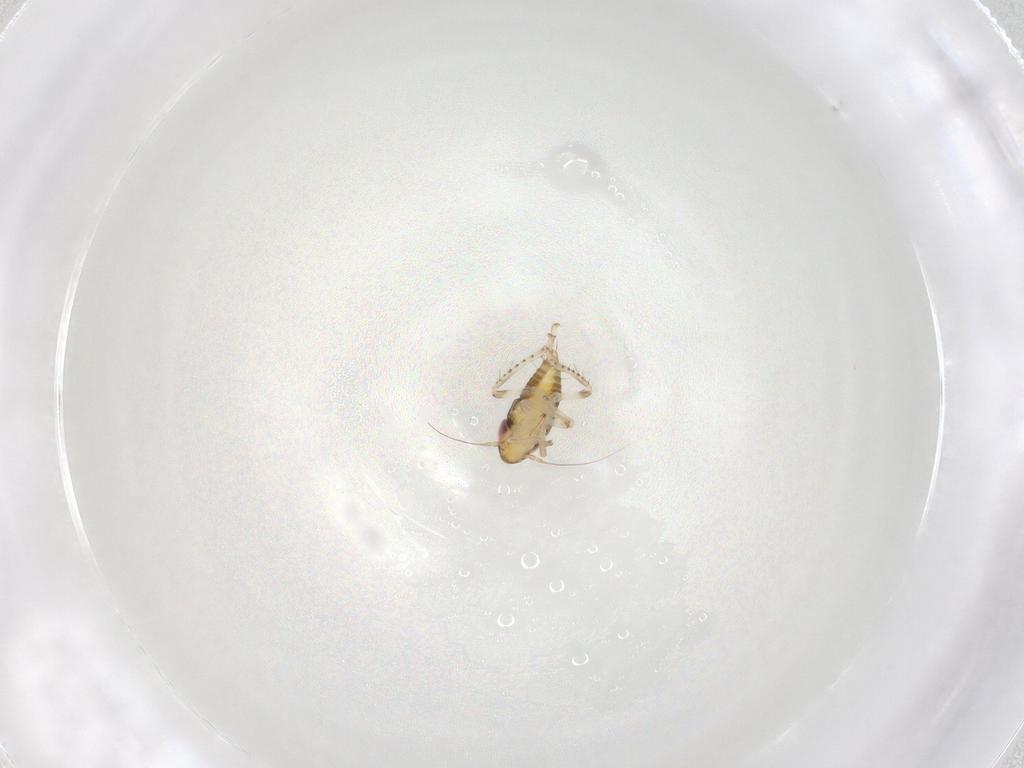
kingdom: Animalia
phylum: Arthropoda
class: Insecta
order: Hemiptera
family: Cicadellidae
